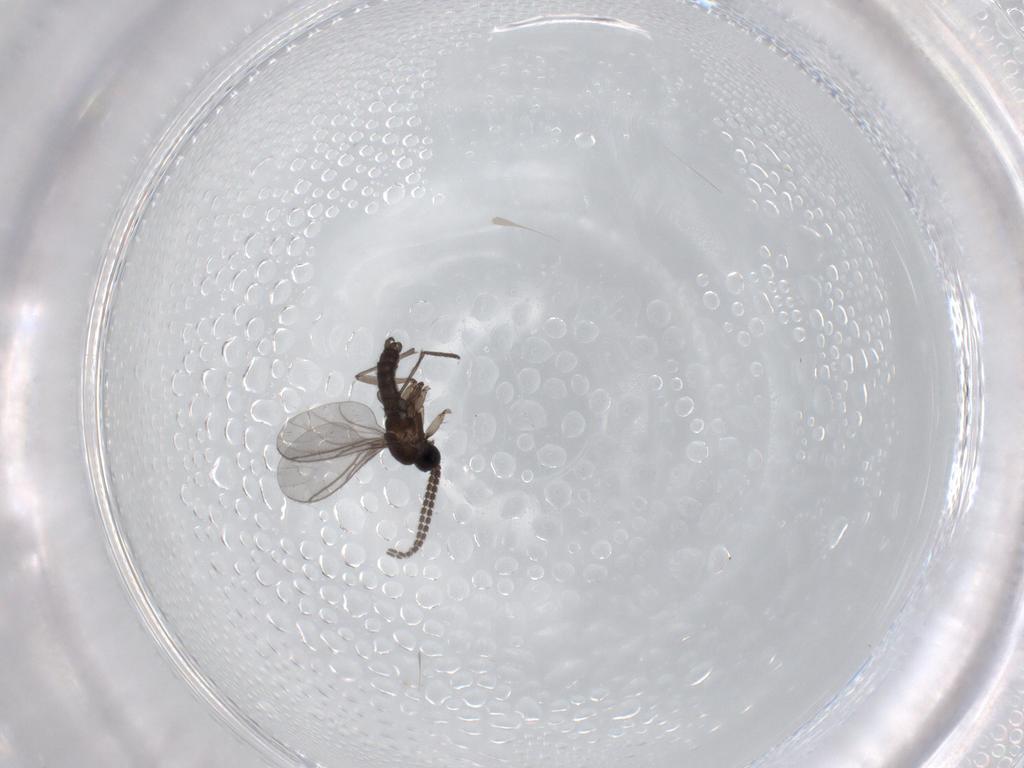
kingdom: Animalia
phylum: Arthropoda
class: Insecta
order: Diptera
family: Sciaridae
